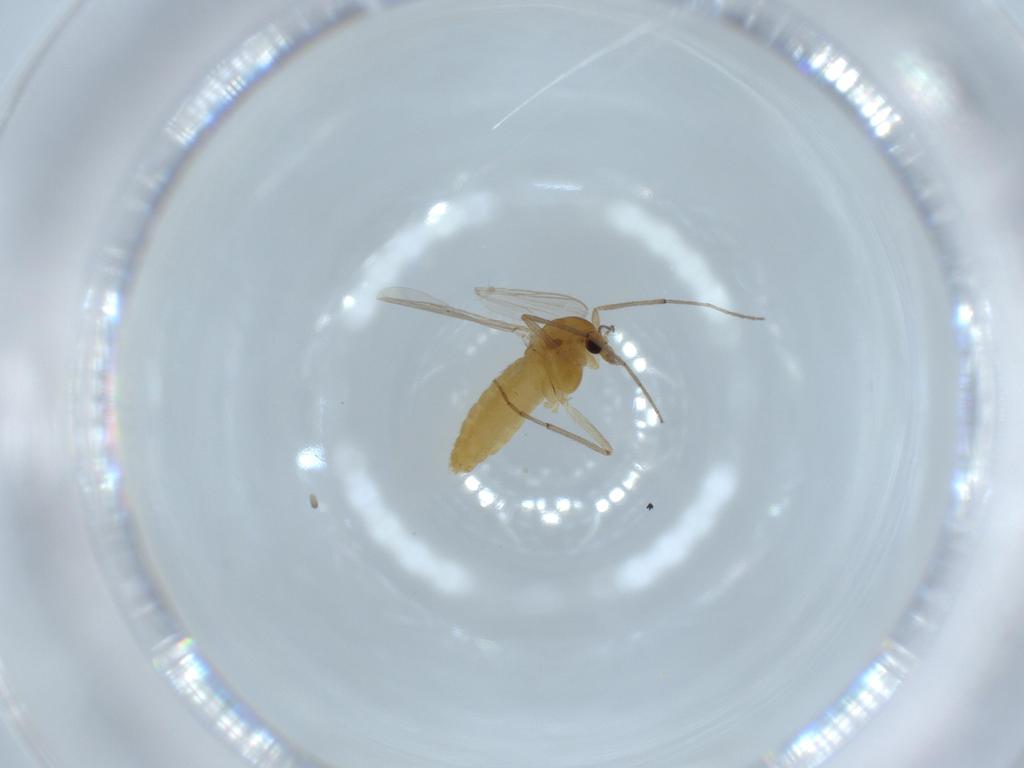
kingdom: Animalia
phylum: Arthropoda
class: Insecta
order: Diptera
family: Chironomidae
